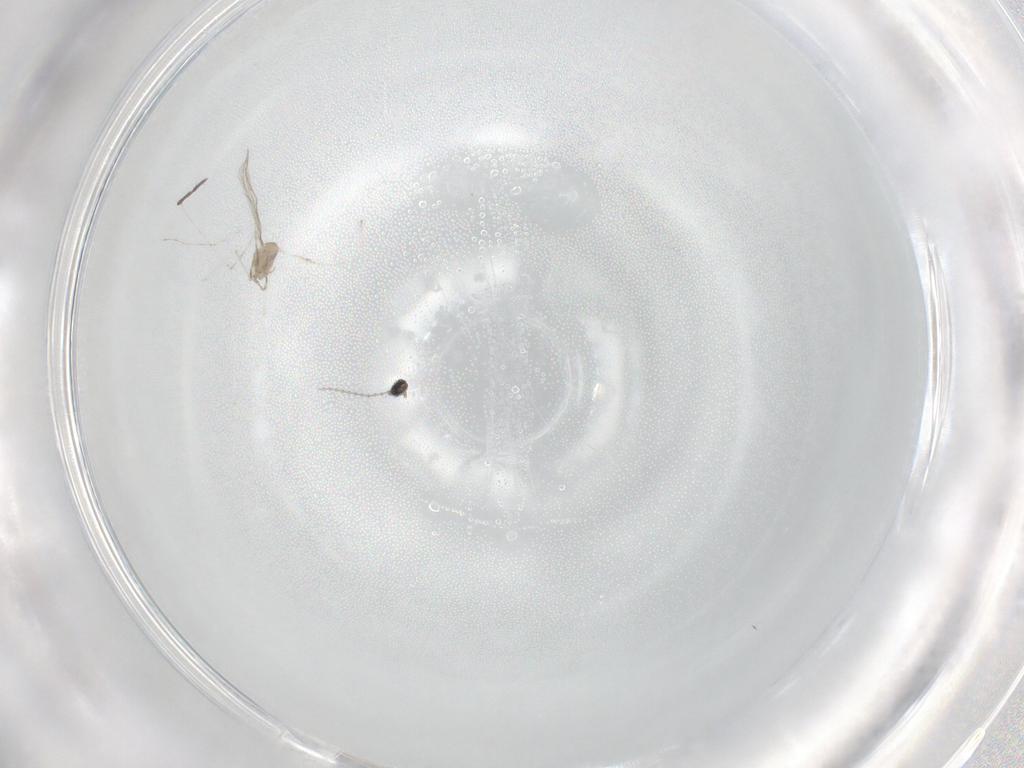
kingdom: Animalia
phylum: Arthropoda
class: Insecta
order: Diptera
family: Cecidomyiidae
